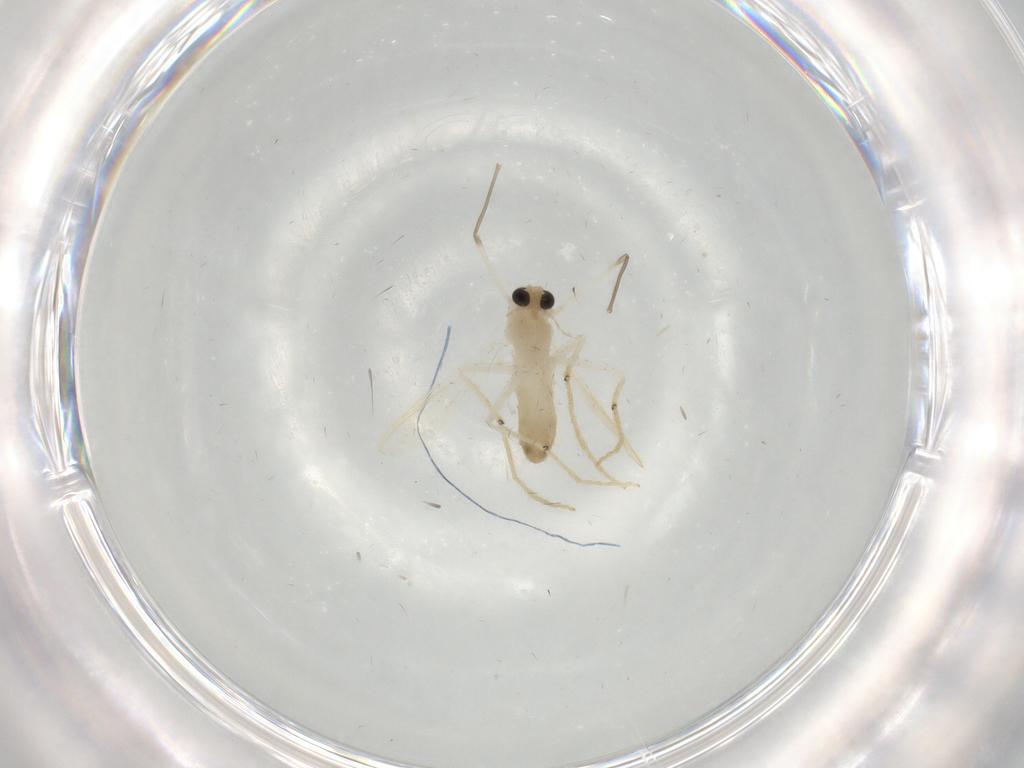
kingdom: Animalia
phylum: Arthropoda
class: Insecta
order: Diptera
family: Chironomidae
